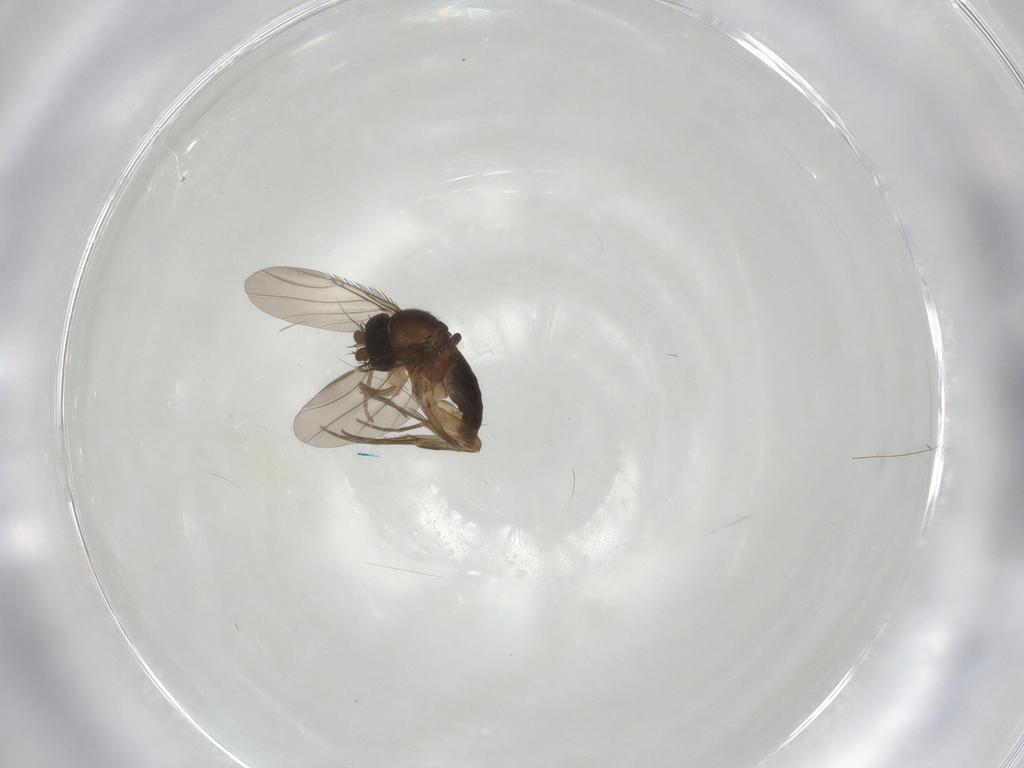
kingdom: Animalia
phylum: Arthropoda
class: Insecta
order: Diptera
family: Phoridae
